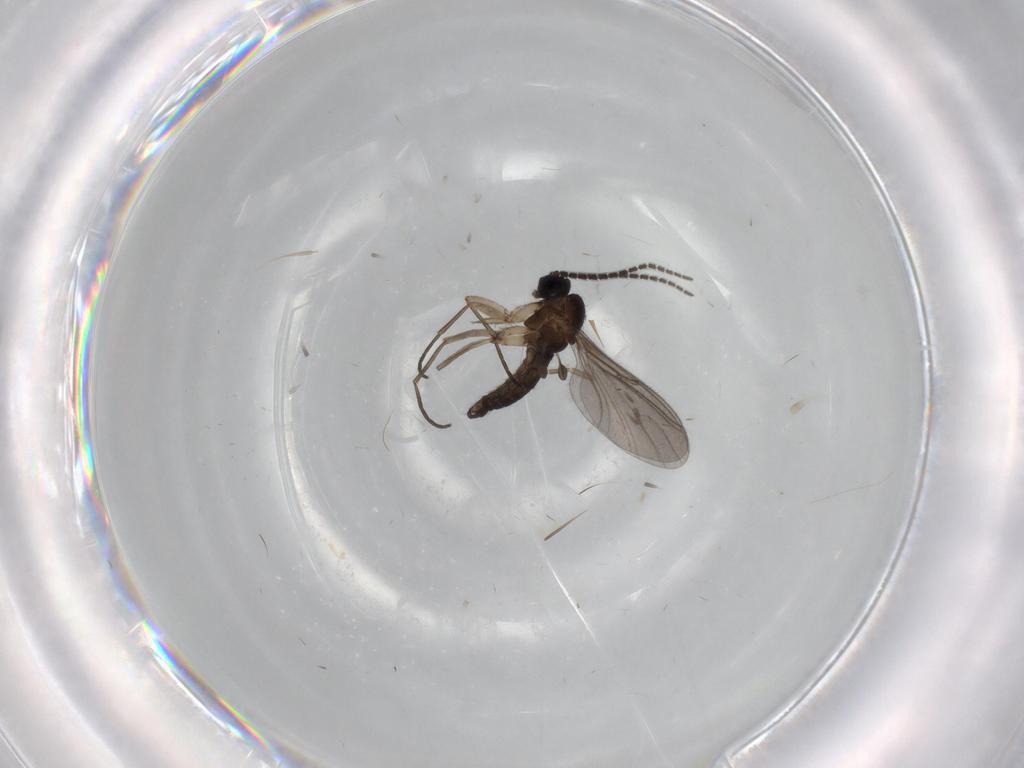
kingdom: Animalia
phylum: Arthropoda
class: Insecta
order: Diptera
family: Sciaridae
